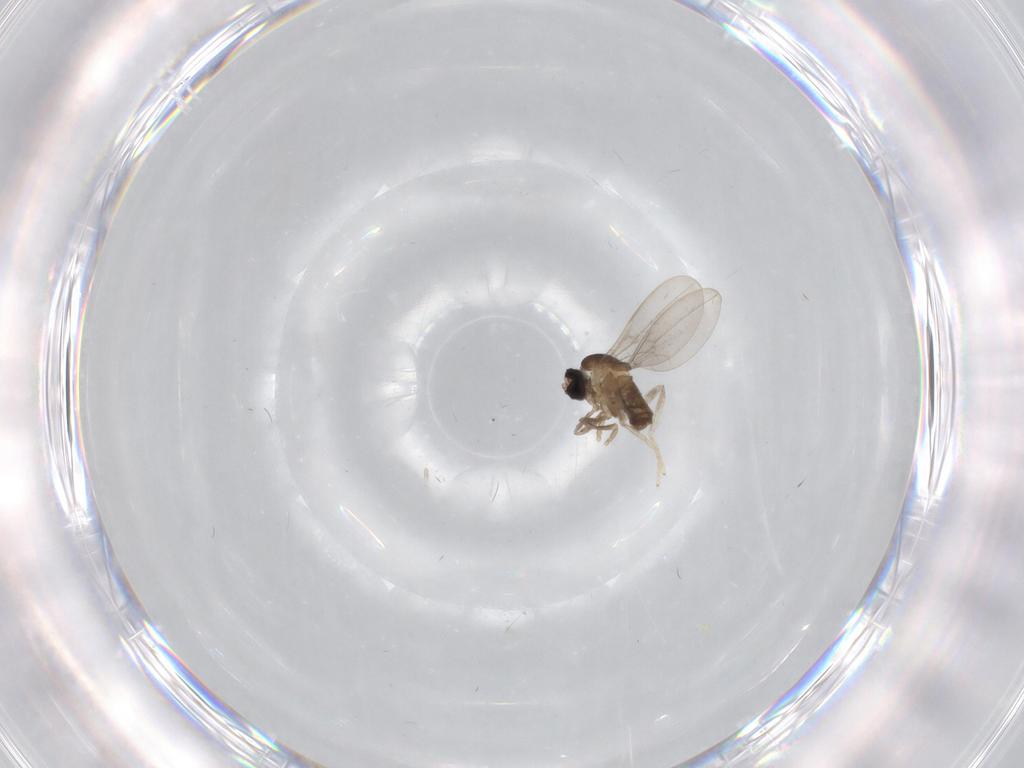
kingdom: Animalia
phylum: Arthropoda
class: Insecta
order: Diptera
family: Cecidomyiidae
